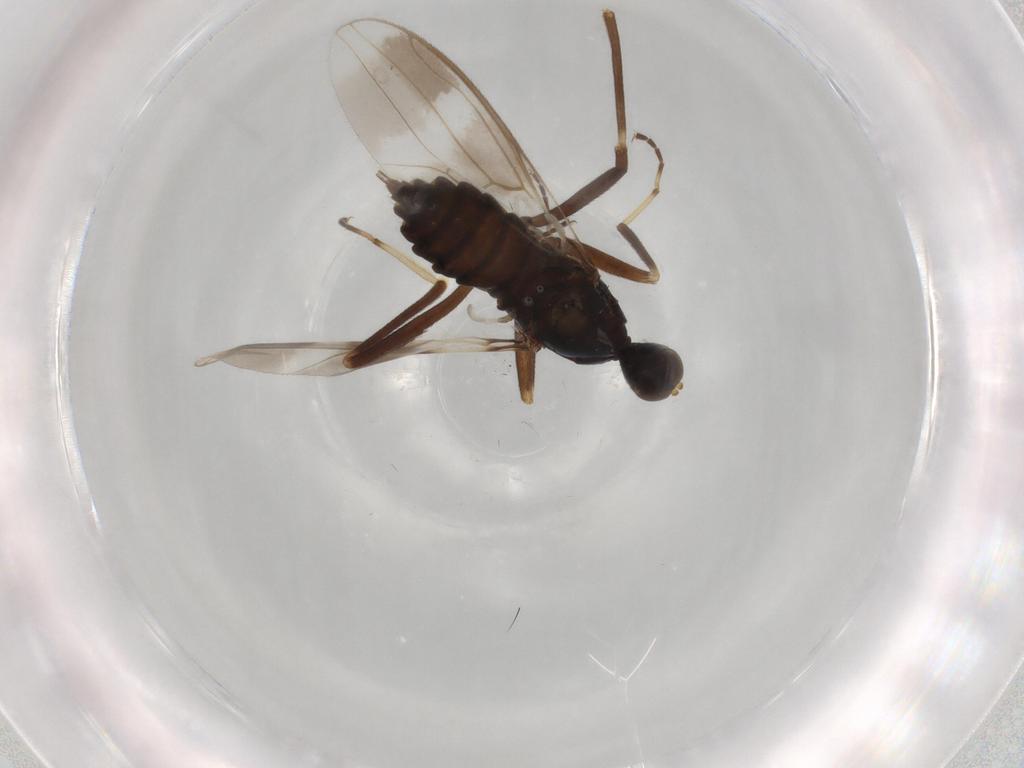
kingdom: Animalia
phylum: Arthropoda
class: Insecta
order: Diptera
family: Hybotidae
